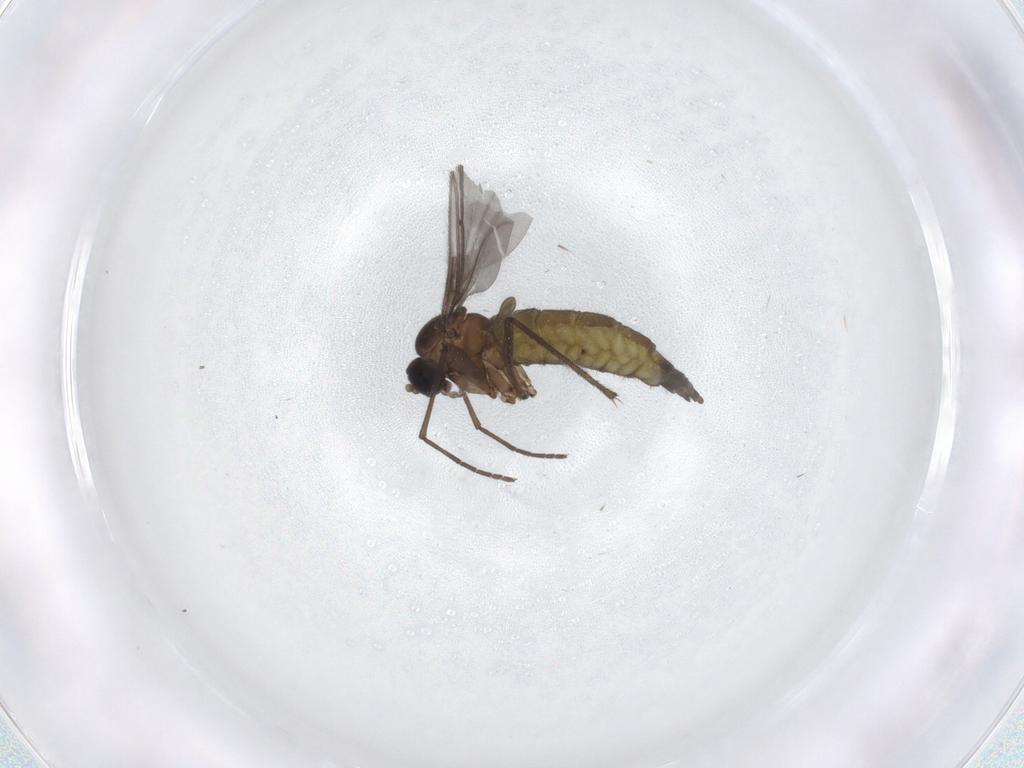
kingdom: Animalia
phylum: Arthropoda
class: Insecta
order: Diptera
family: Sciaridae
